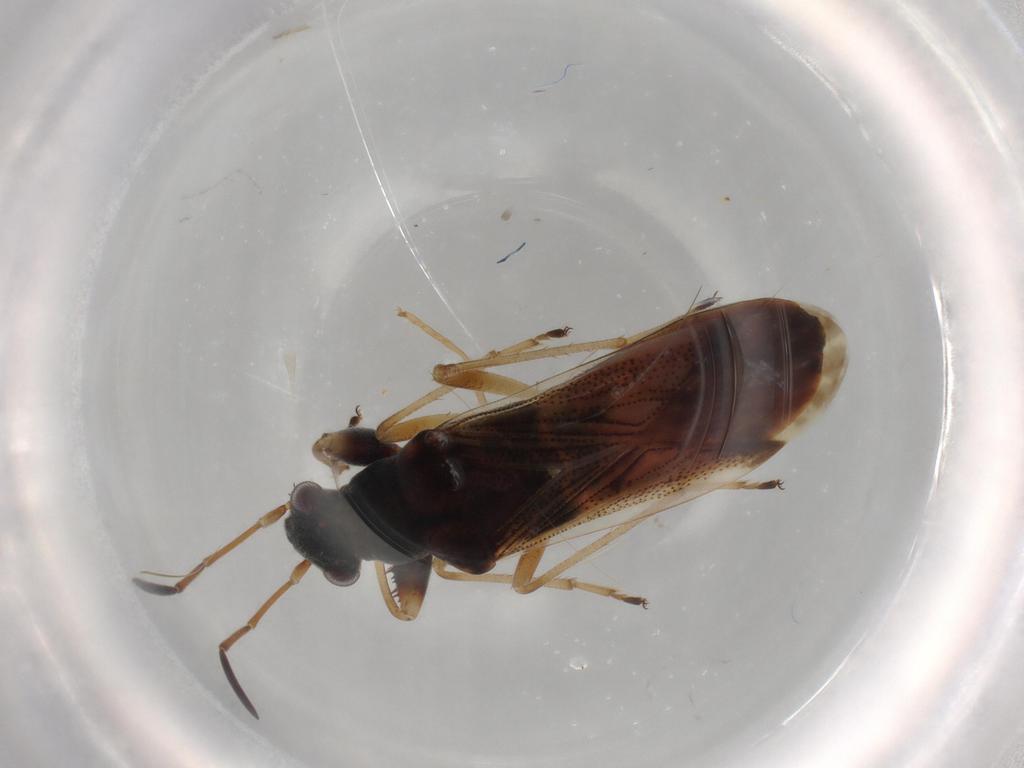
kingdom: Animalia
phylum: Arthropoda
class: Insecta
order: Hemiptera
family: Rhyparochromidae
